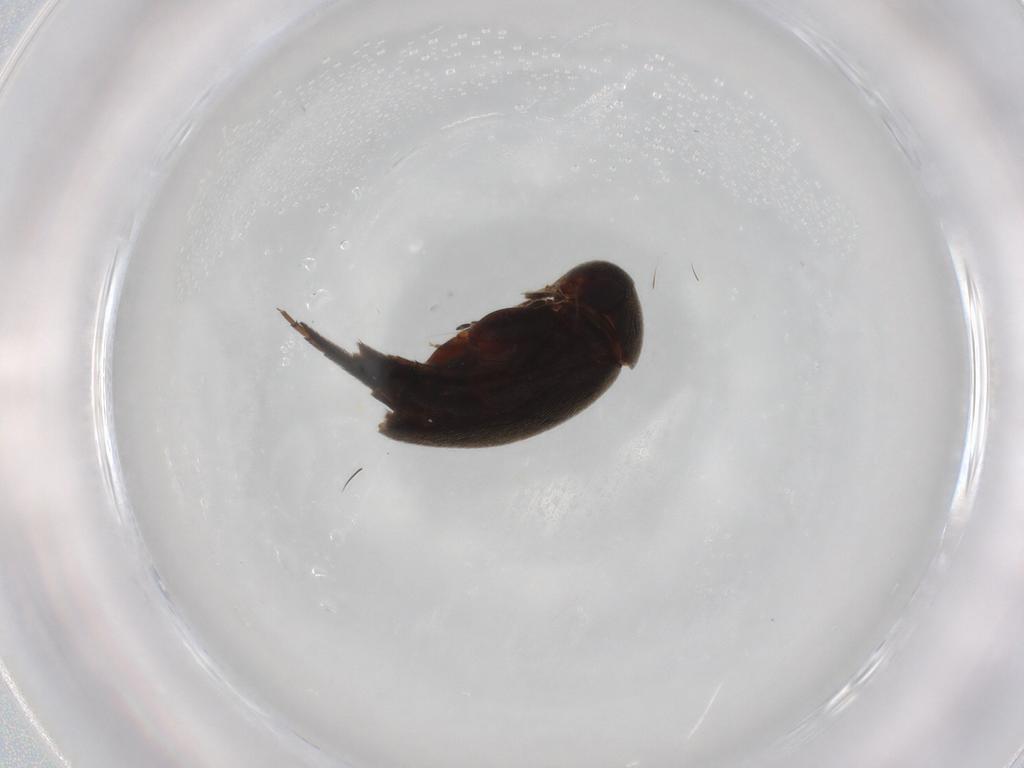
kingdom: Animalia
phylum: Arthropoda
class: Insecta
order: Coleoptera
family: Mordellidae
